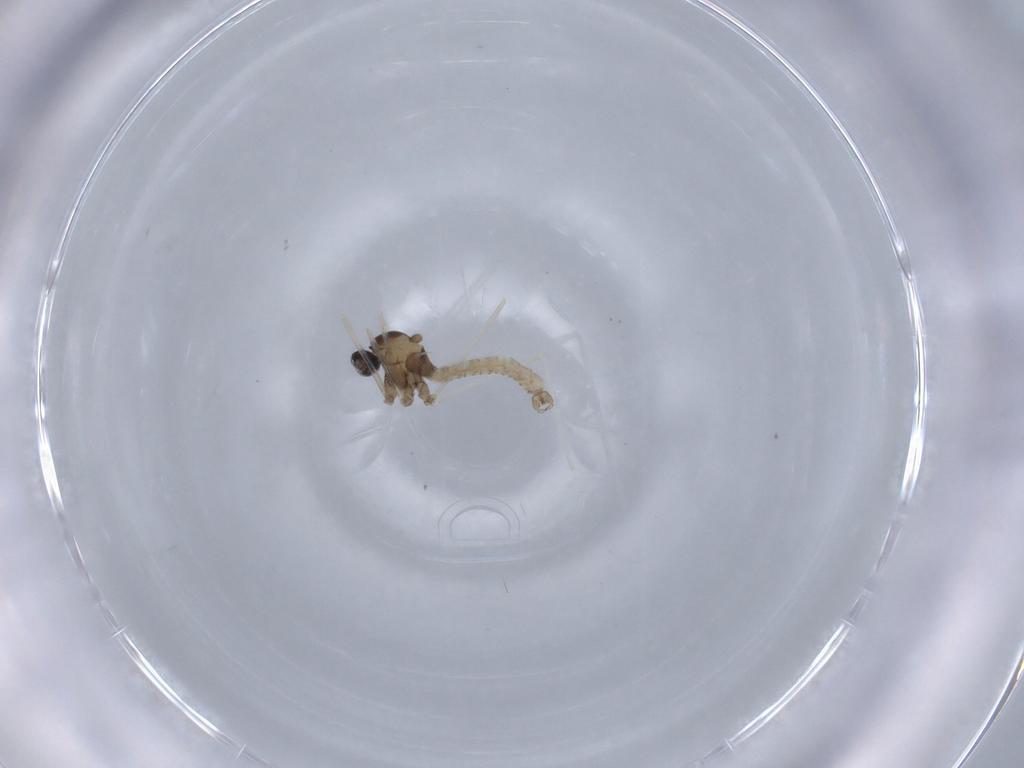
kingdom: Animalia
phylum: Arthropoda
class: Insecta
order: Diptera
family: Cecidomyiidae
